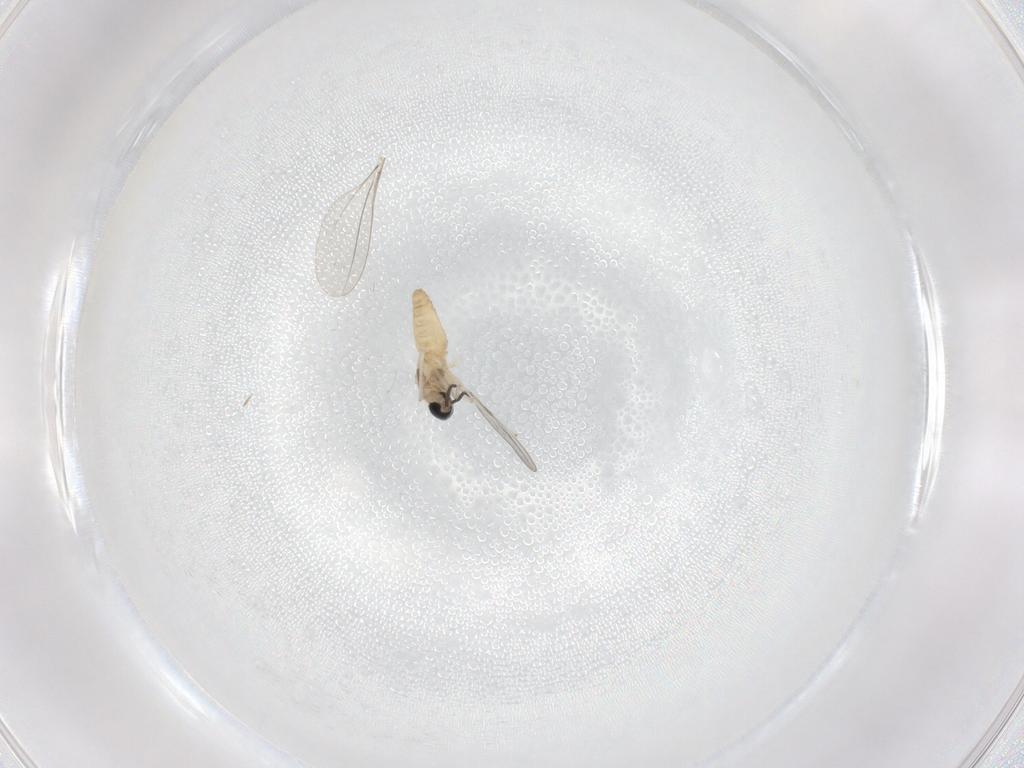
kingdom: Animalia
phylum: Arthropoda
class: Insecta
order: Diptera
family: Cecidomyiidae
